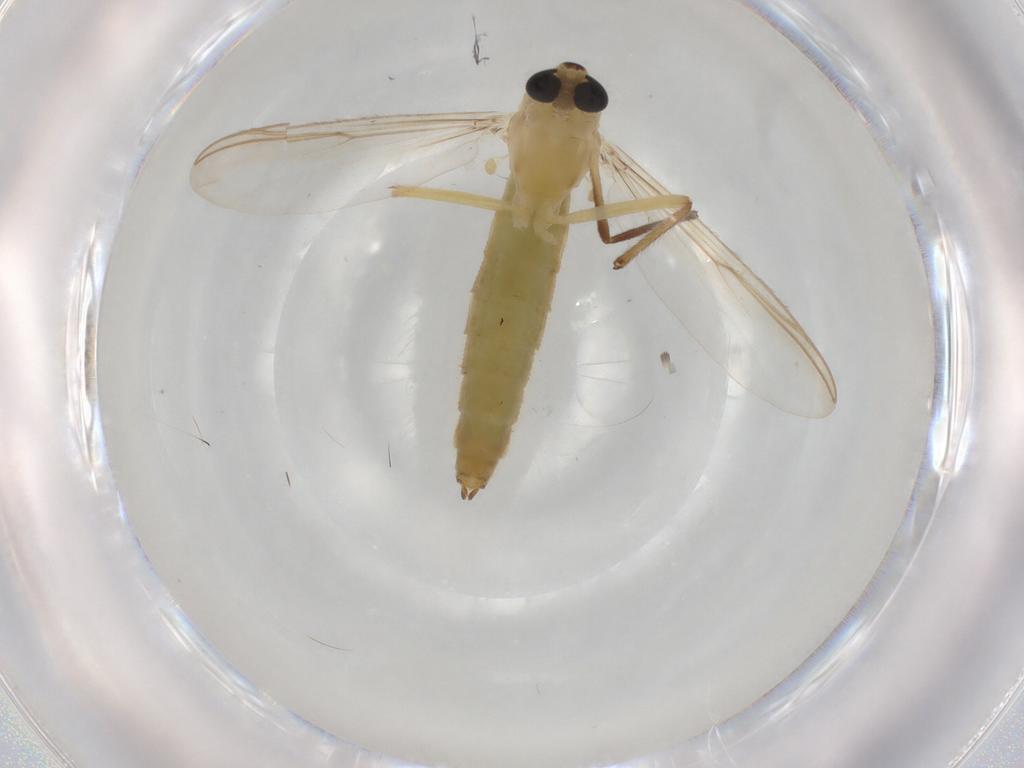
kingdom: Animalia
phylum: Arthropoda
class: Insecta
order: Diptera
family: Chironomidae
